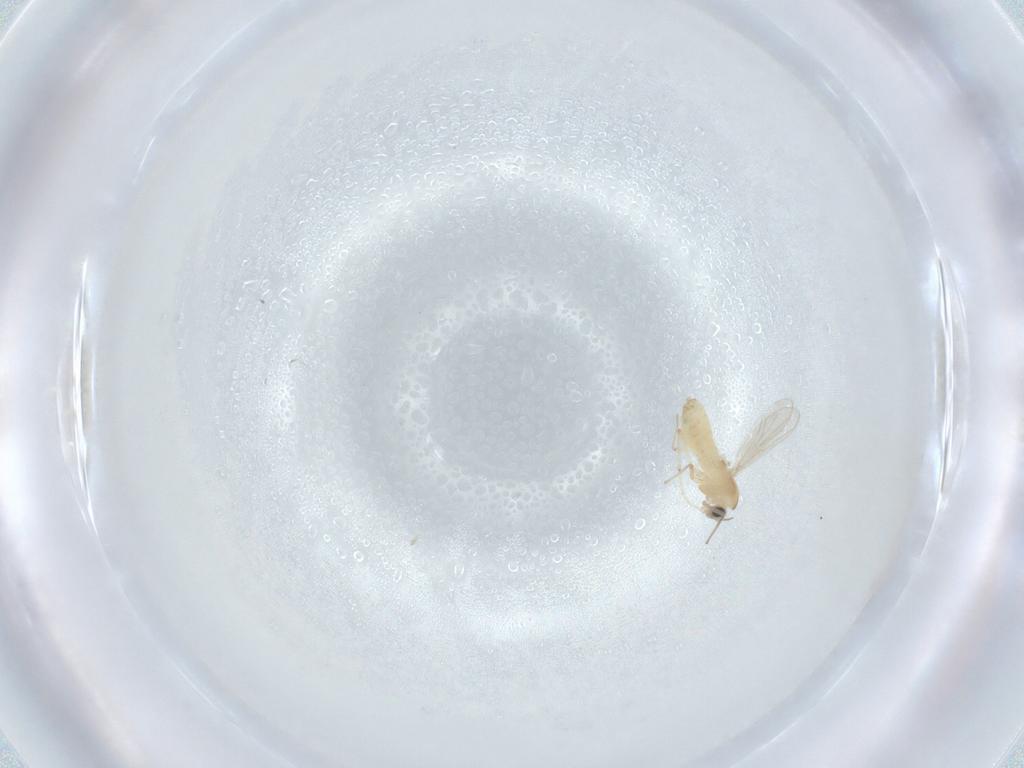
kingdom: Animalia
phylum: Arthropoda
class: Insecta
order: Diptera
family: Chironomidae
